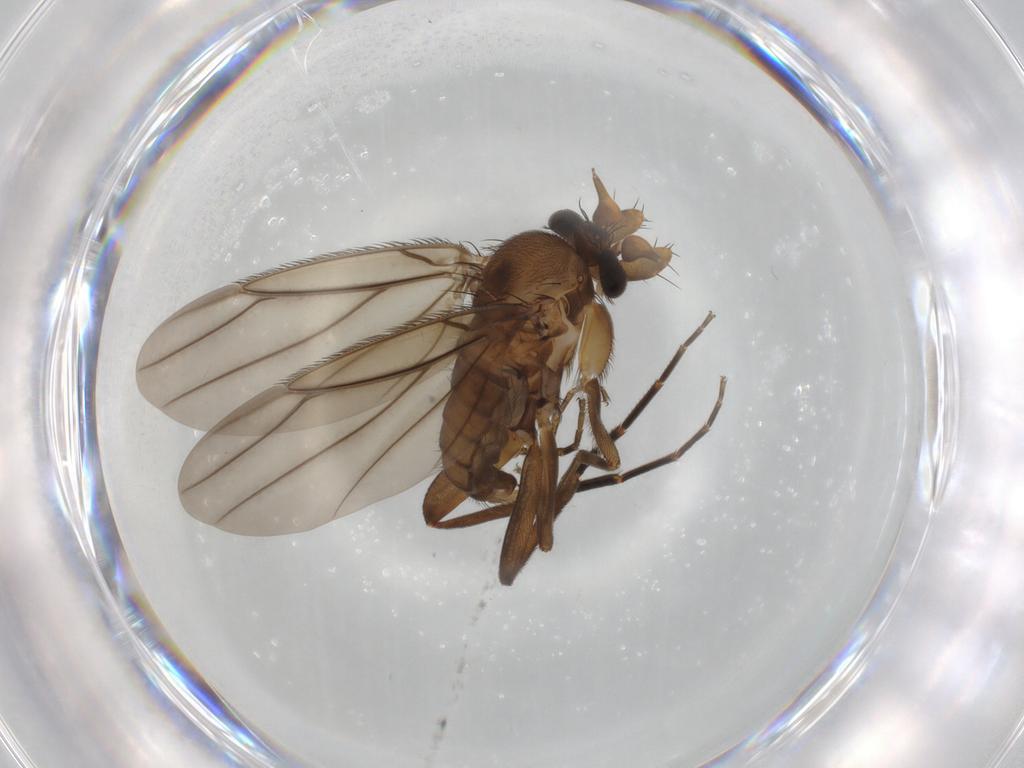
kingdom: Animalia
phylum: Arthropoda
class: Insecta
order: Diptera
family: Phoridae
